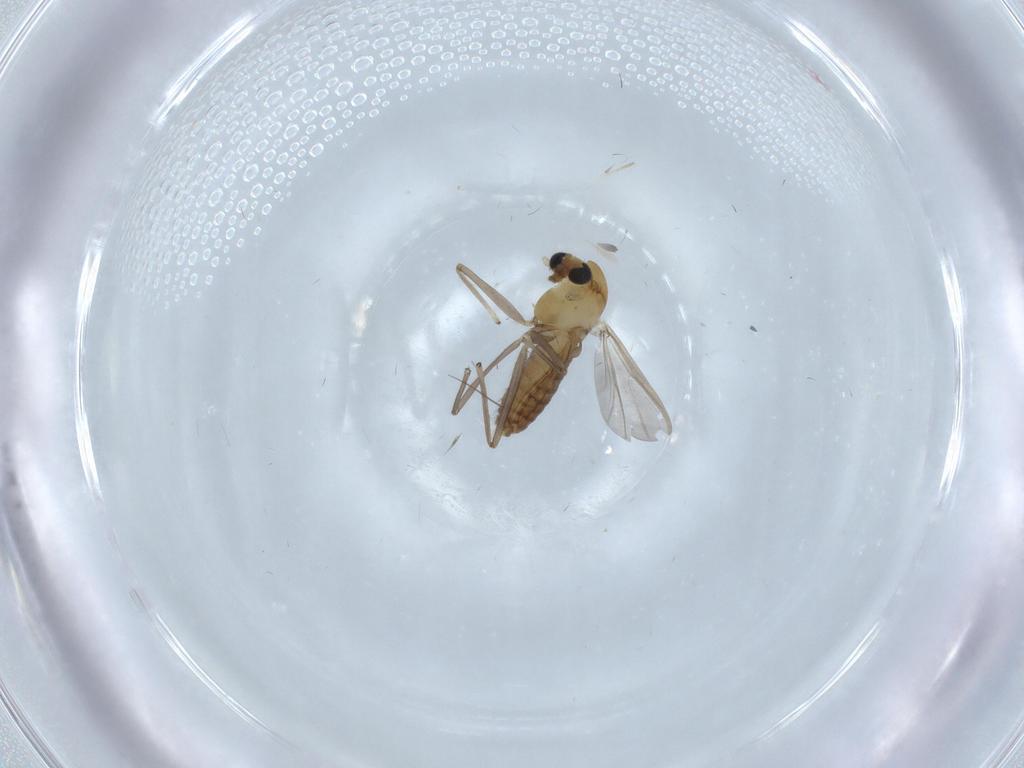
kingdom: Animalia
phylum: Arthropoda
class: Insecta
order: Diptera
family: Chironomidae
